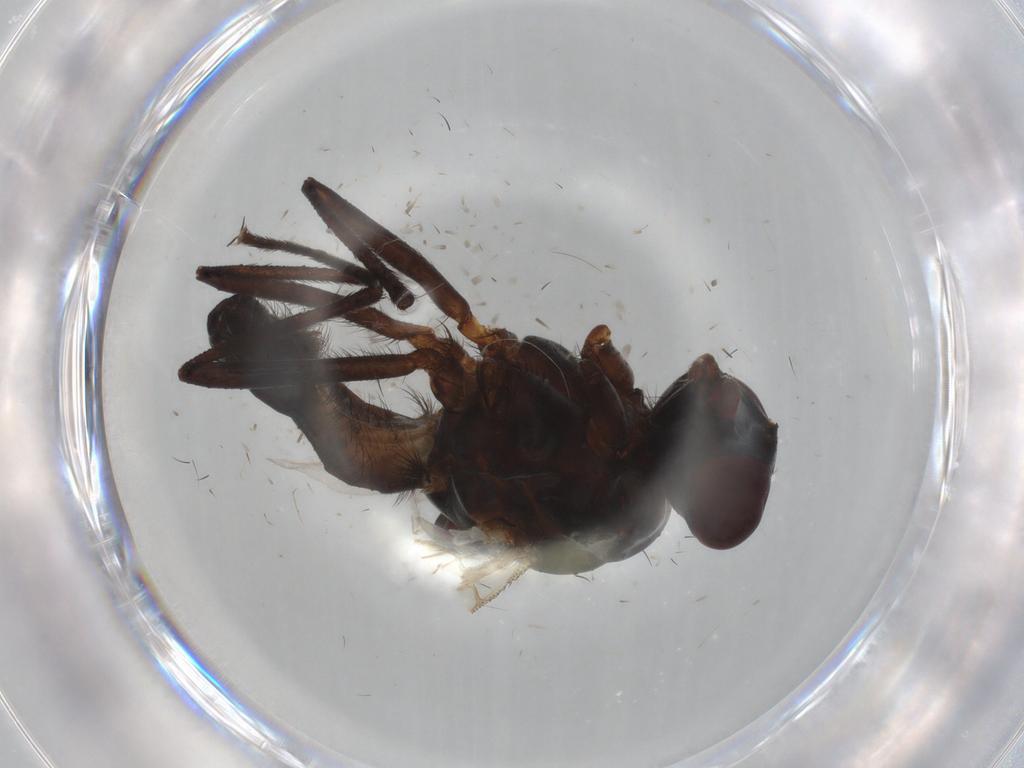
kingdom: Animalia
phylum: Arthropoda
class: Insecta
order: Diptera
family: Anthomyiidae
